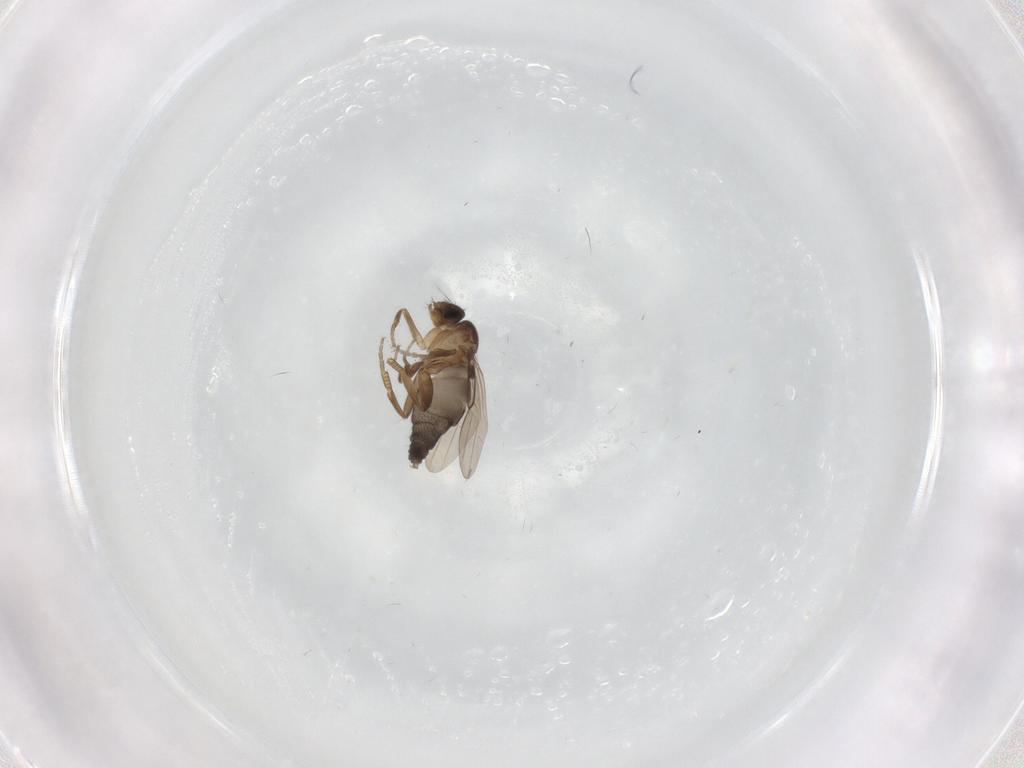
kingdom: Animalia
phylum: Arthropoda
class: Insecta
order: Diptera
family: Phoridae
